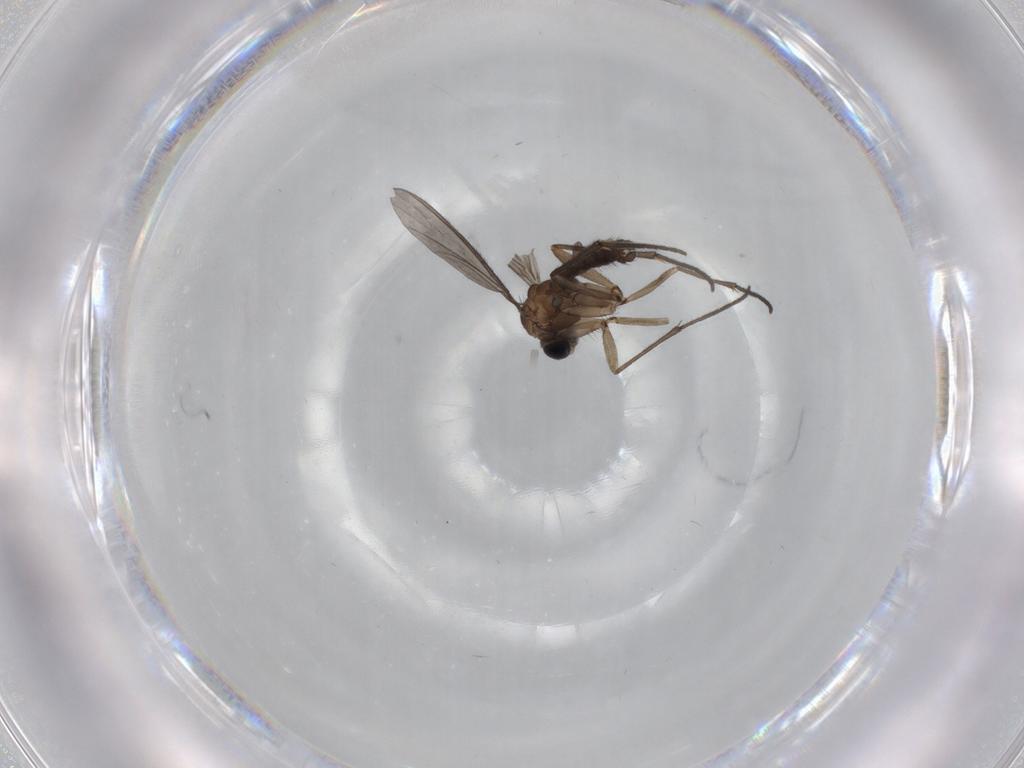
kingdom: Animalia
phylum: Arthropoda
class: Insecta
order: Diptera
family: Sciaridae
